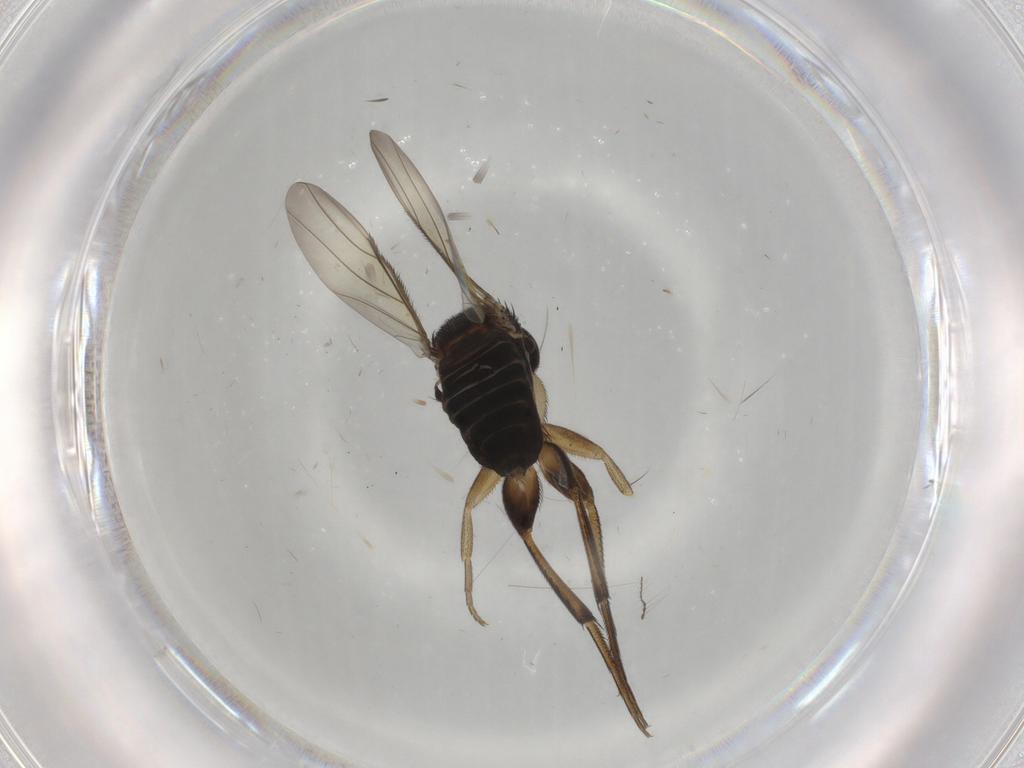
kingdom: Animalia
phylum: Arthropoda
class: Insecta
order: Diptera
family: Phoridae
